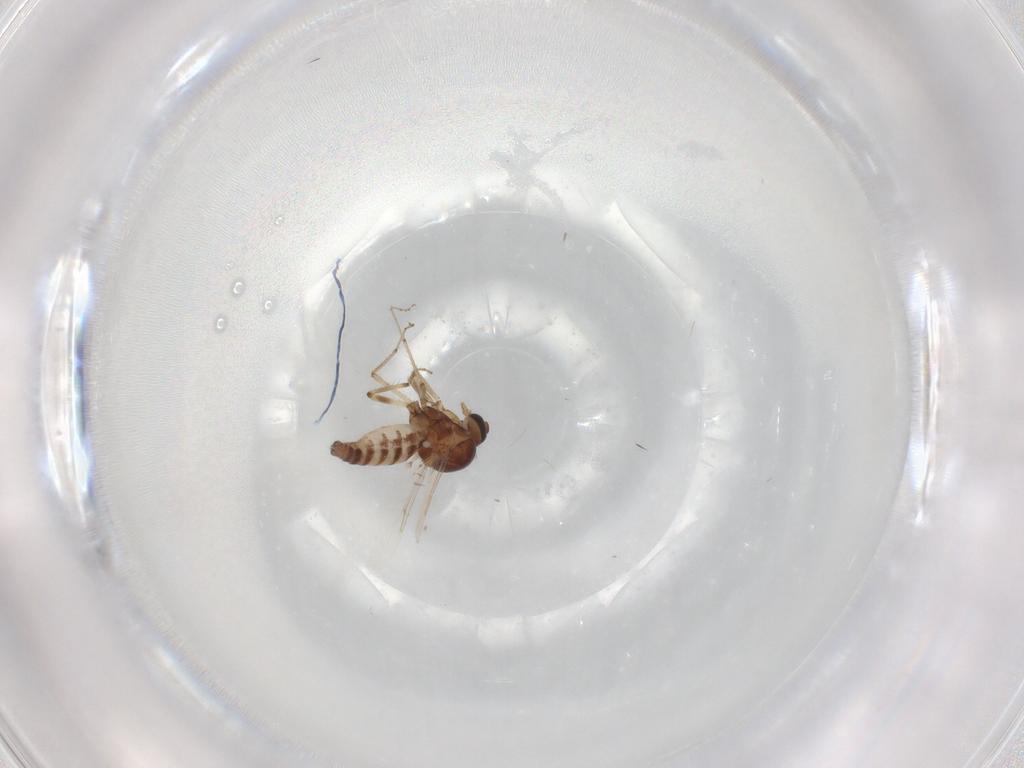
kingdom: Animalia
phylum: Arthropoda
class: Insecta
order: Diptera
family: Ceratopogonidae
